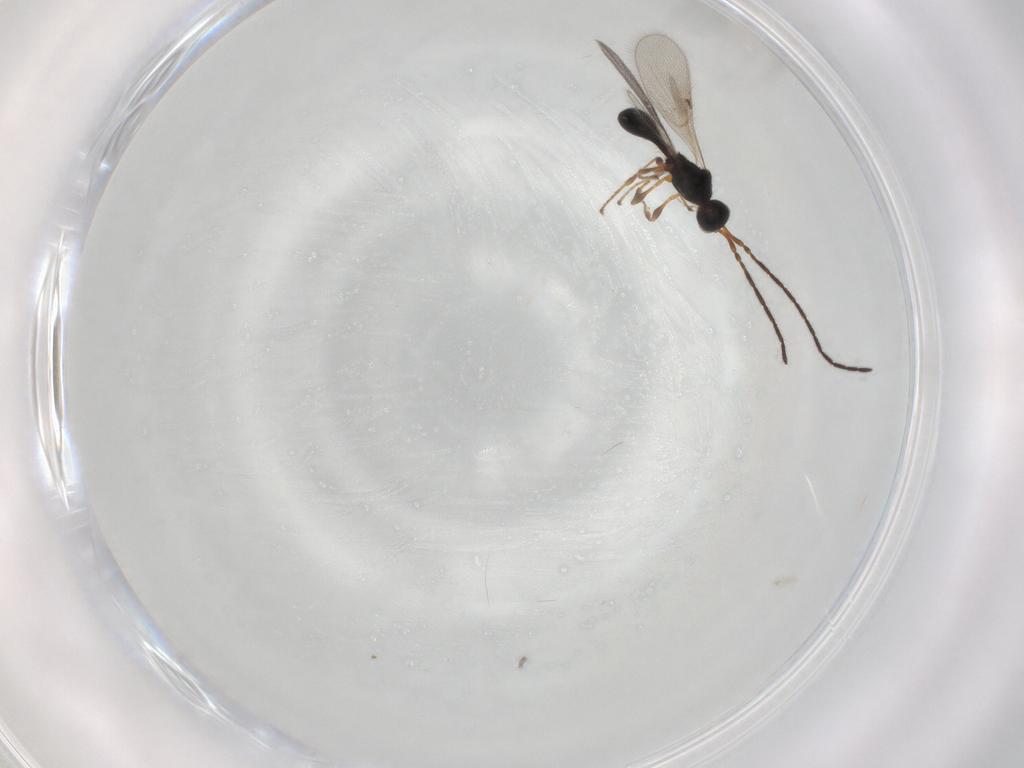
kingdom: Animalia
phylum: Arthropoda
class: Insecta
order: Hymenoptera
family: Diapriidae
